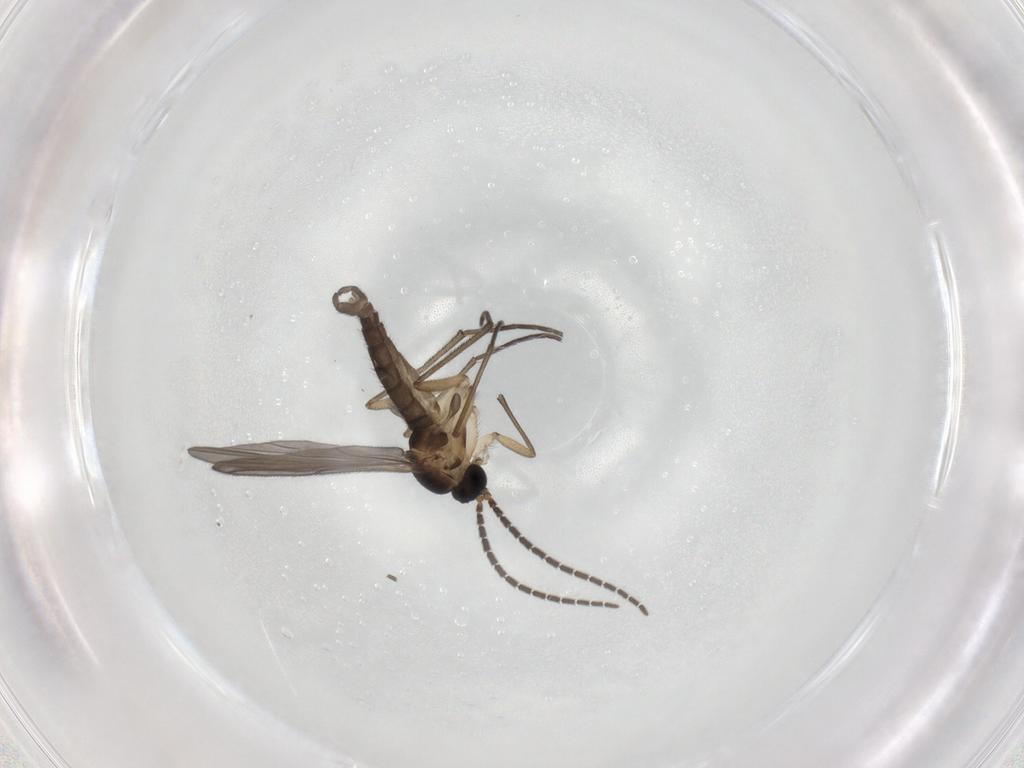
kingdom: Animalia
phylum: Arthropoda
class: Insecta
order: Diptera
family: Sciaridae
